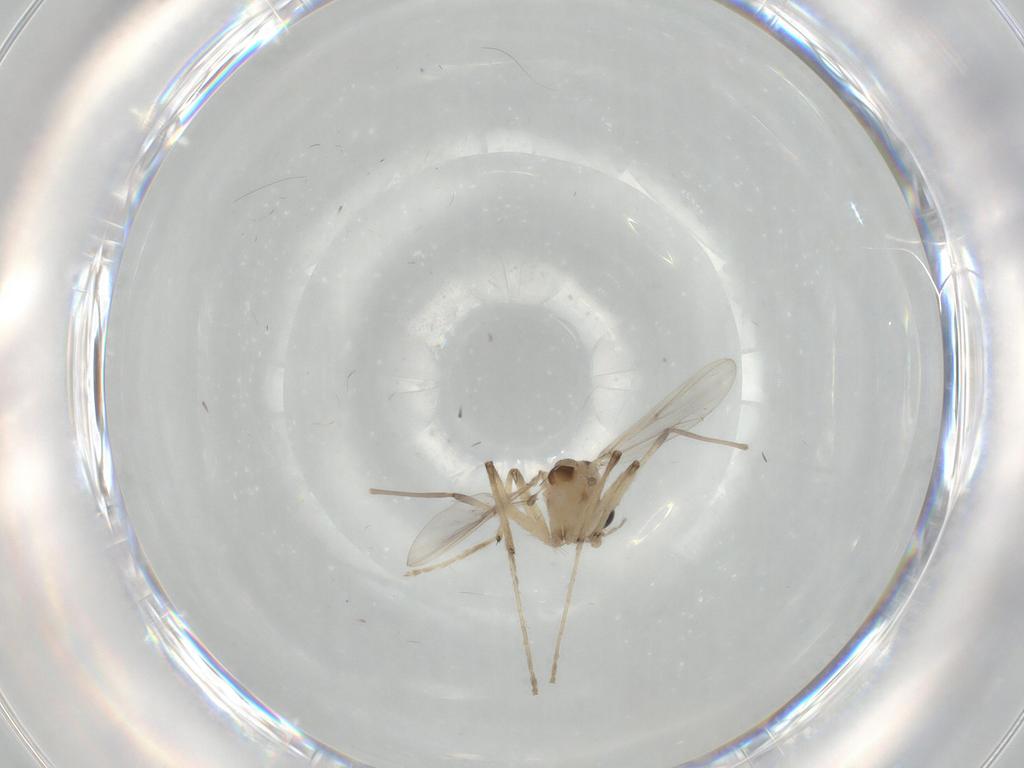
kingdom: Animalia
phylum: Arthropoda
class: Insecta
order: Diptera
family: Chironomidae
